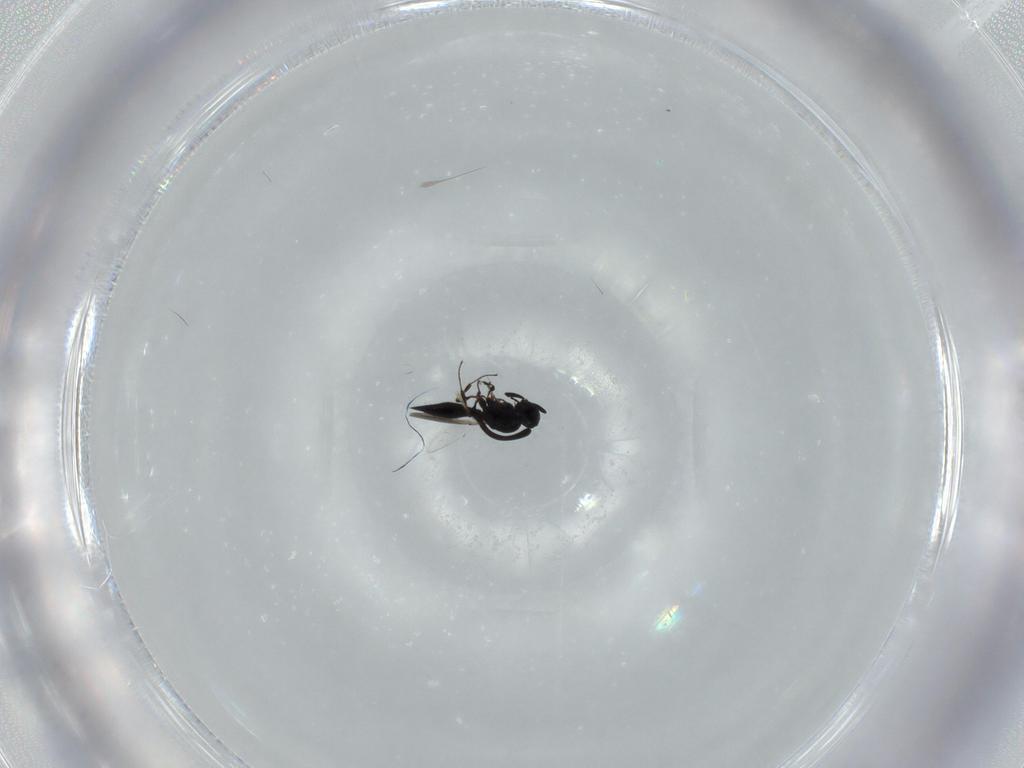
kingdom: Animalia
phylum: Arthropoda
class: Insecta
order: Hymenoptera
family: Platygastridae
